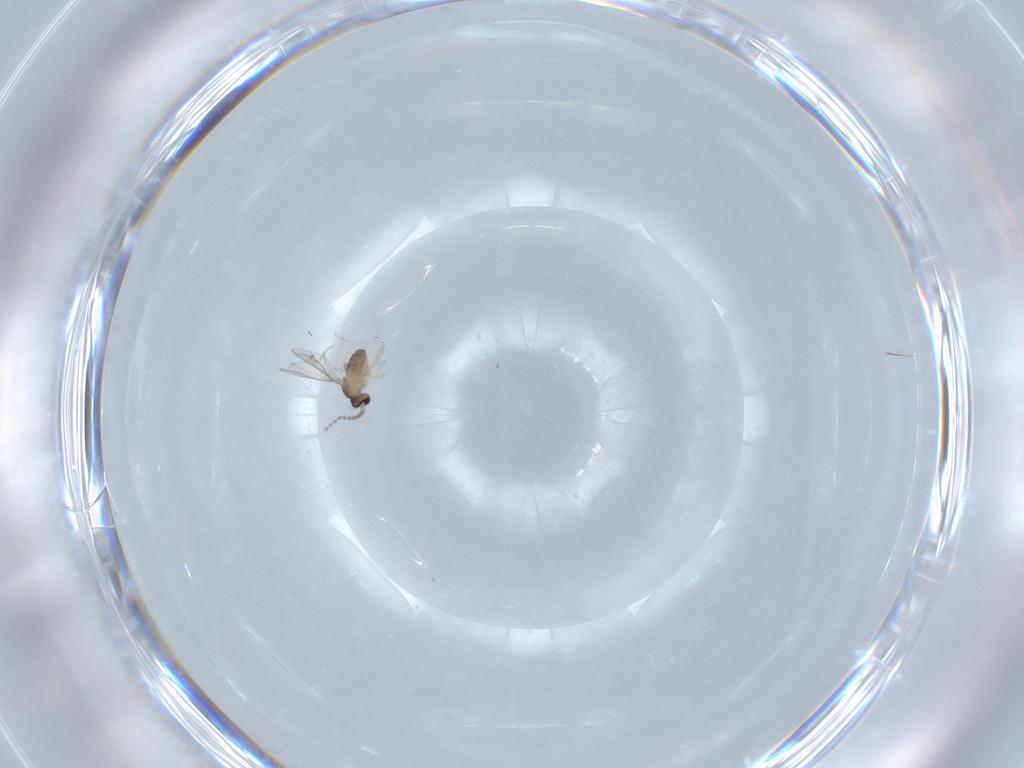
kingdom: Animalia
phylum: Arthropoda
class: Insecta
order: Diptera
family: Cecidomyiidae
